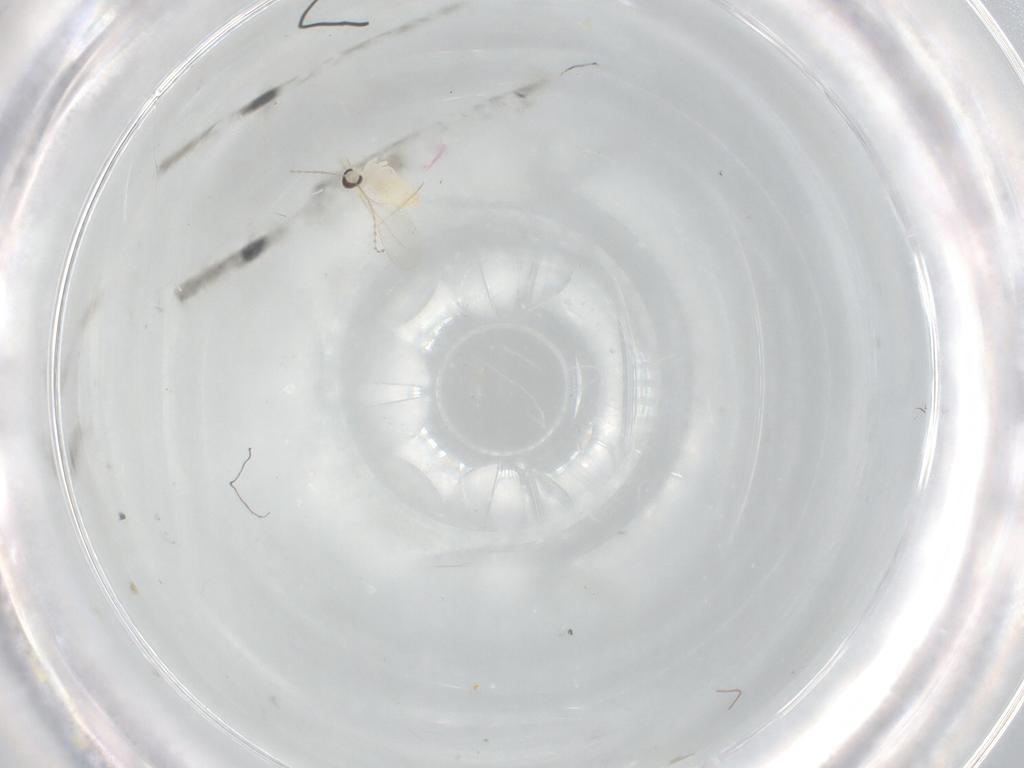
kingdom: Animalia
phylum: Arthropoda
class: Insecta
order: Diptera
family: Cecidomyiidae
